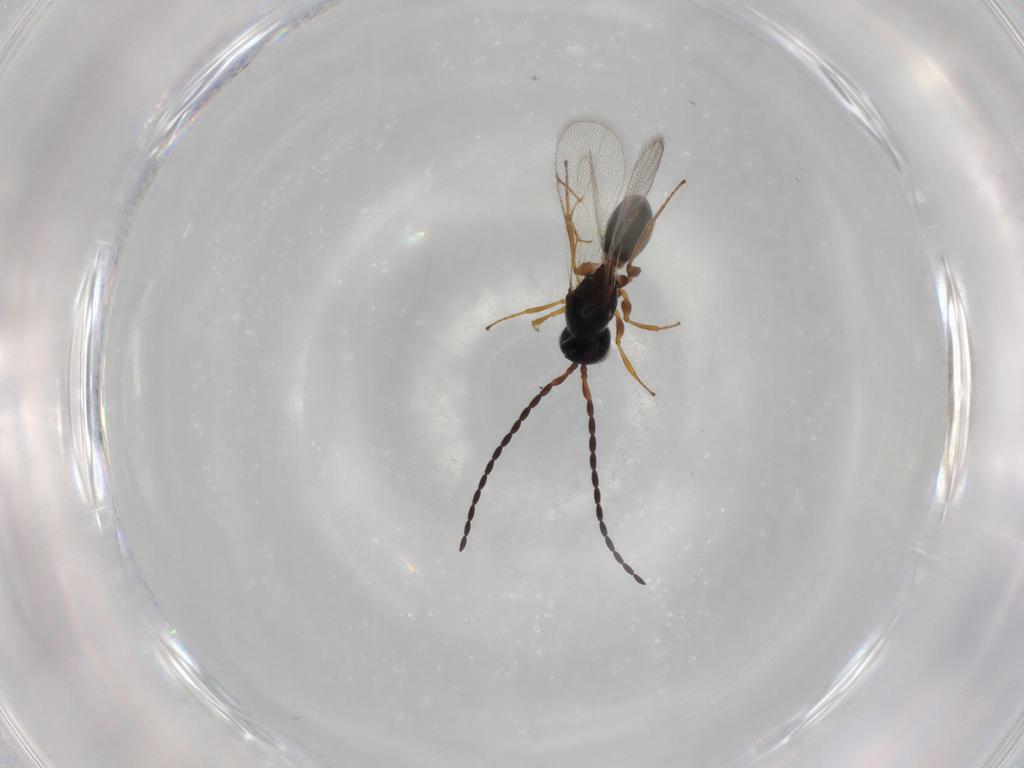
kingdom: Animalia
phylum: Arthropoda
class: Insecta
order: Hymenoptera
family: Figitidae
